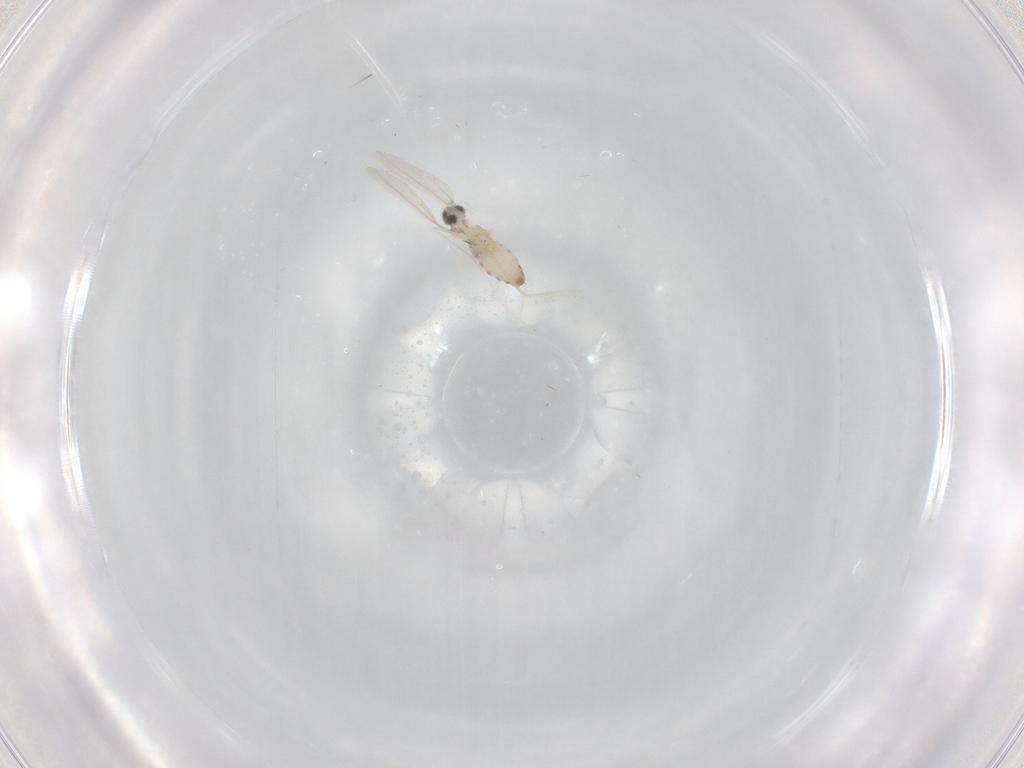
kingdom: Animalia
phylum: Arthropoda
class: Insecta
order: Diptera
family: Cecidomyiidae
